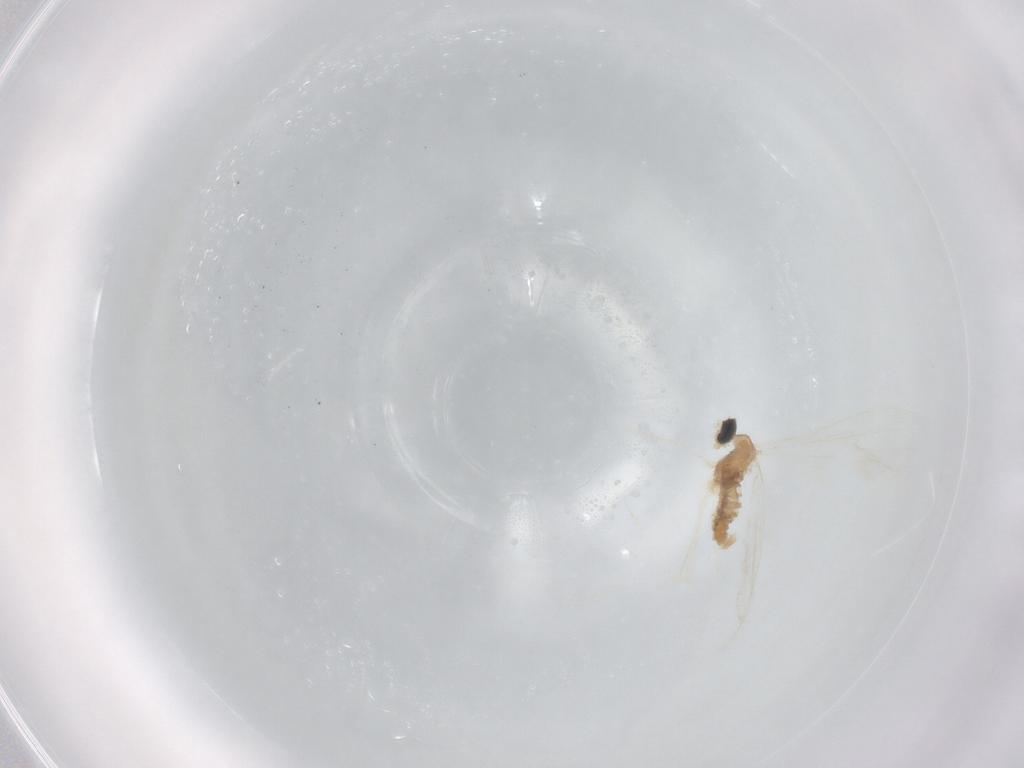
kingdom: Animalia
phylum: Arthropoda
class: Insecta
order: Diptera
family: Cecidomyiidae
